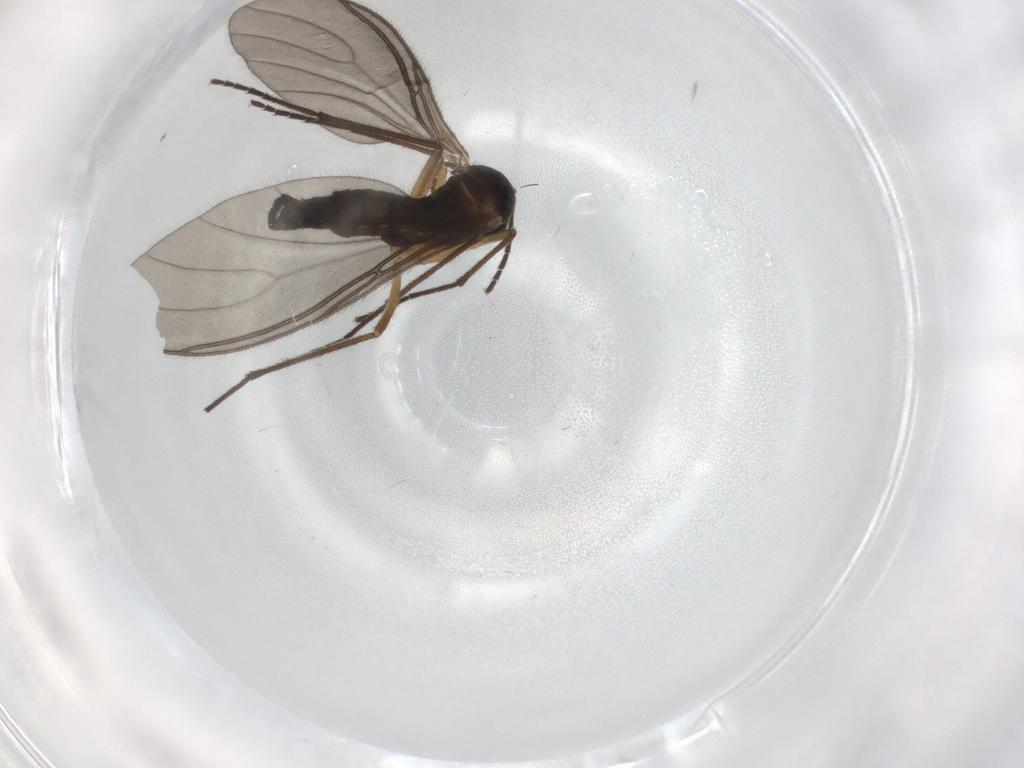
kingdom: Animalia
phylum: Arthropoda
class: Insecta
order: Diptera
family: Sciaridae
